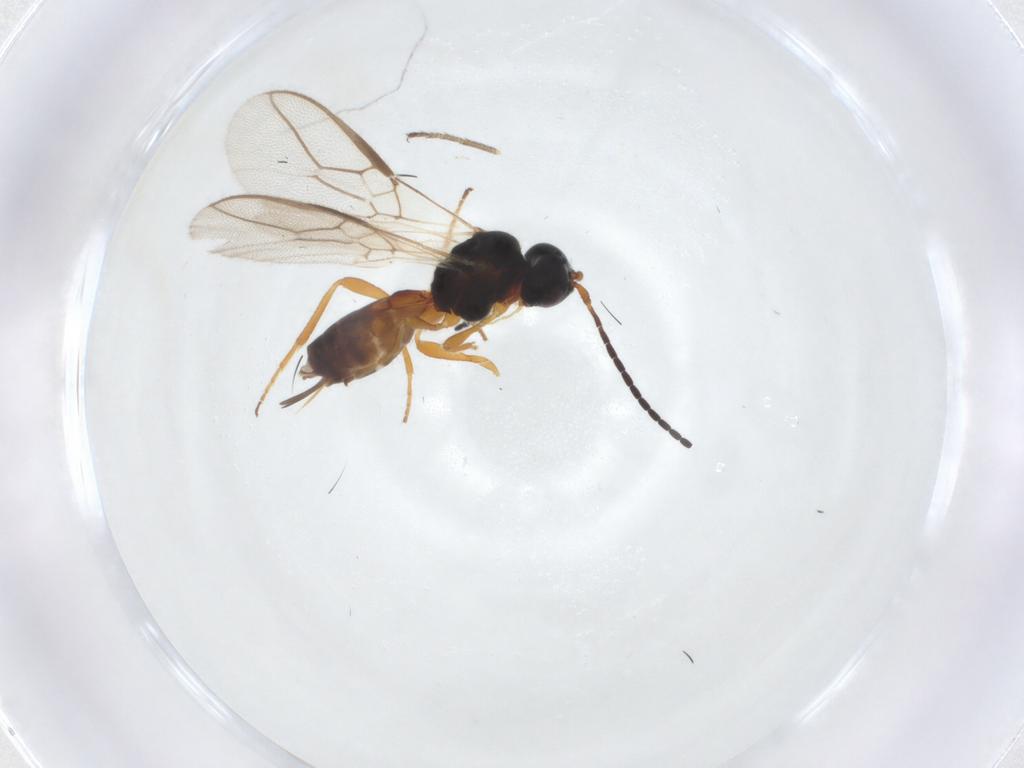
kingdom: Animalia
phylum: Arthropoda
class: Insecta
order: Hymenoptera
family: Braconidae
